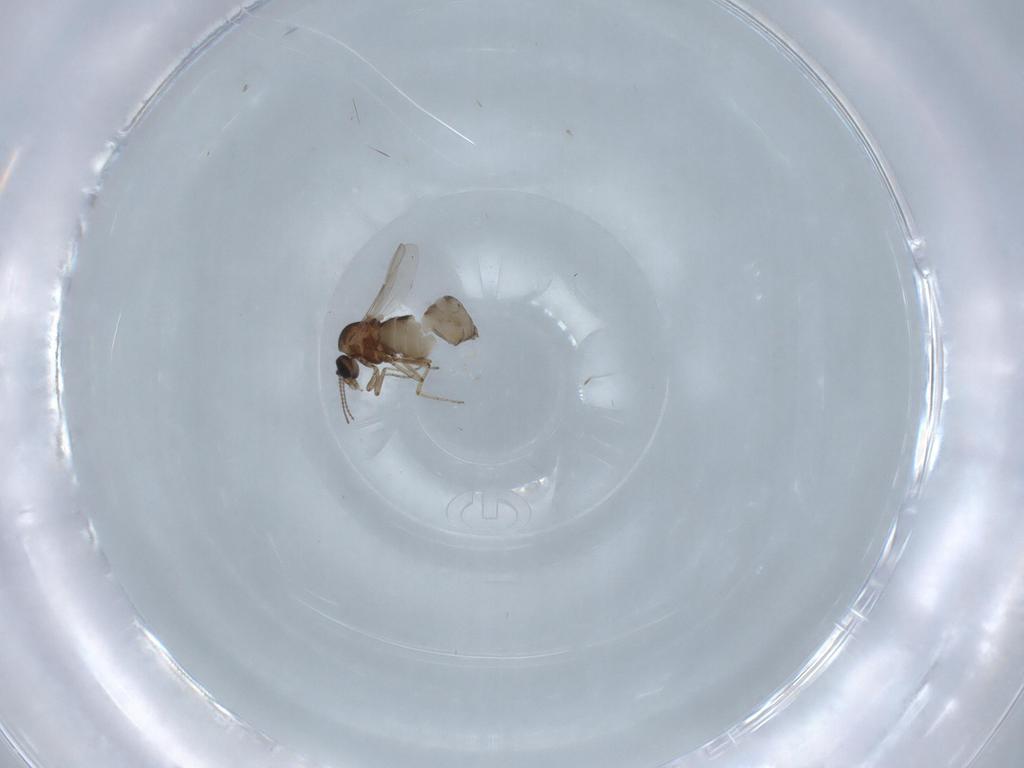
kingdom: Animalia
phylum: Arthropoda
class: Insecta
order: Diptera
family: Ceratopogonidae
